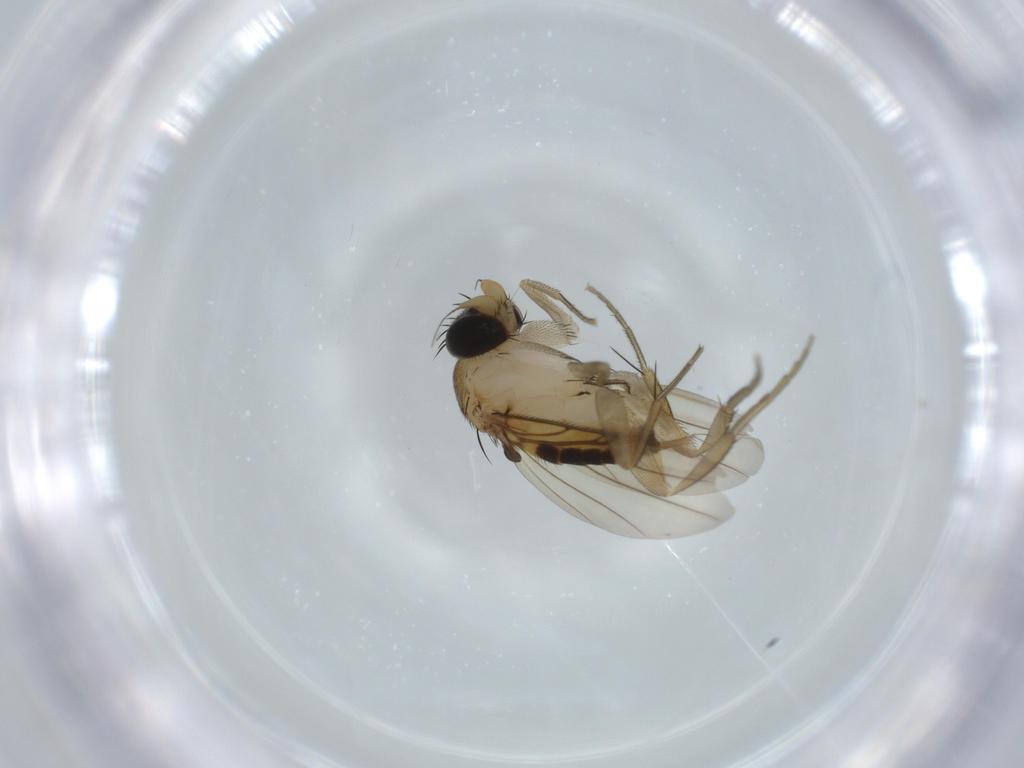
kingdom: Animalia
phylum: Arthropoda
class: Insecta
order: Diptera
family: Phoridae
